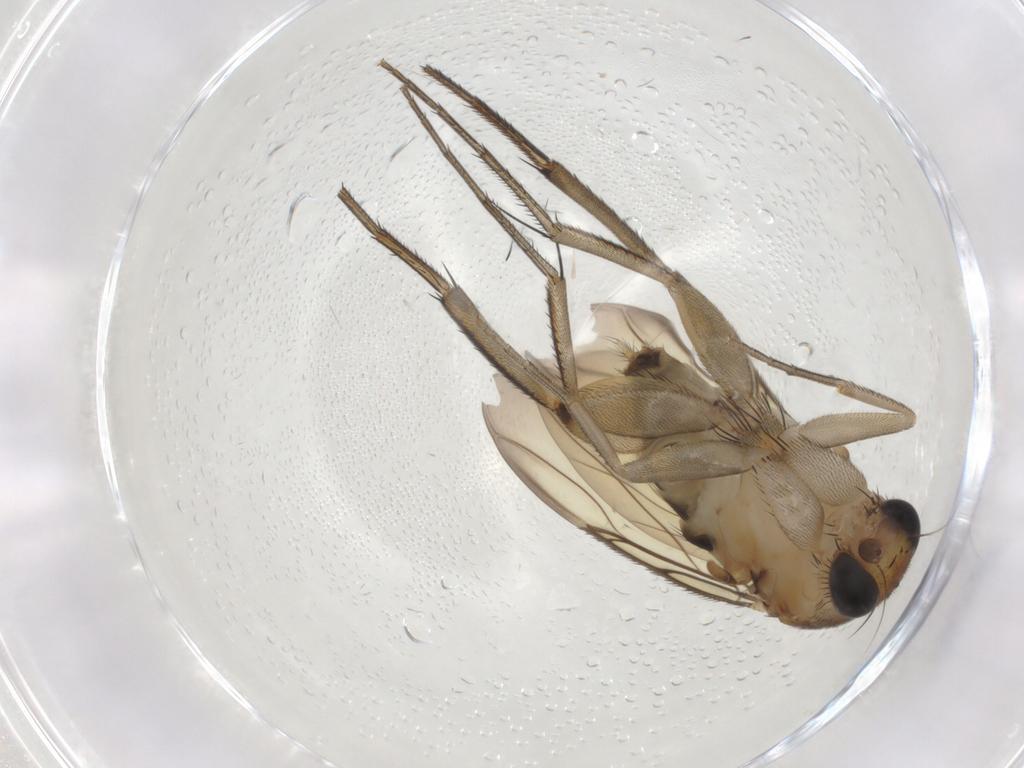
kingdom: Animalia
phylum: Arthropoda
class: Insecta
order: Diptera
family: Phoridae
